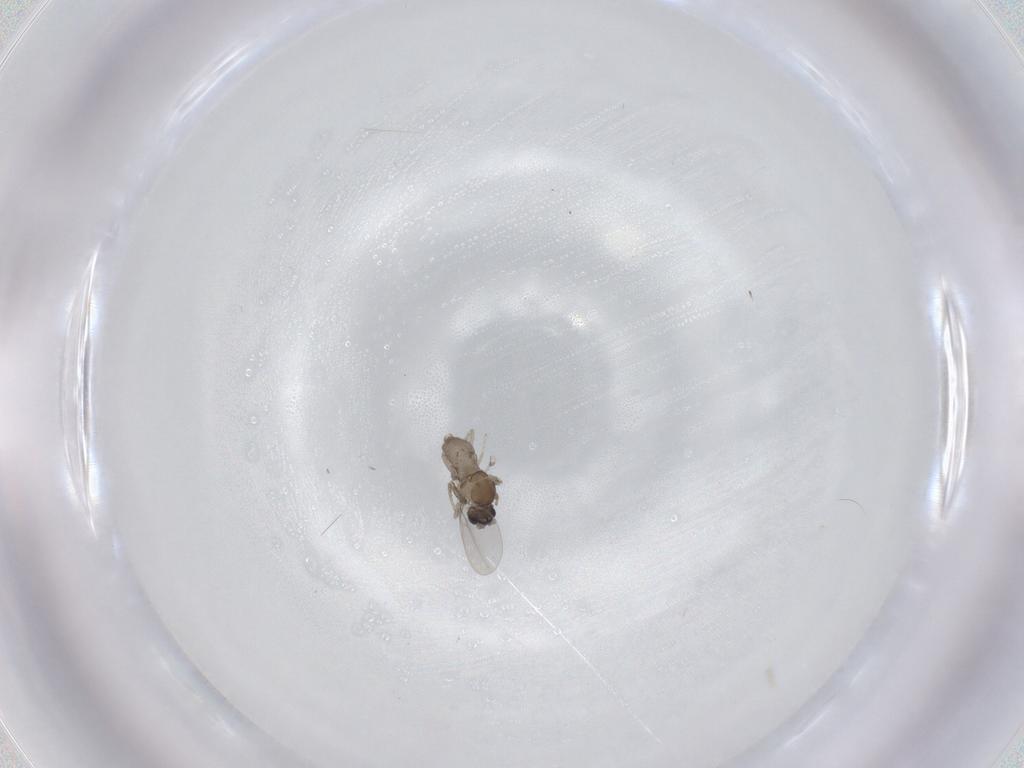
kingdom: Animalia
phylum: Arthropoda
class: Insecta
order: Diptera
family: Cecidomyiidae
